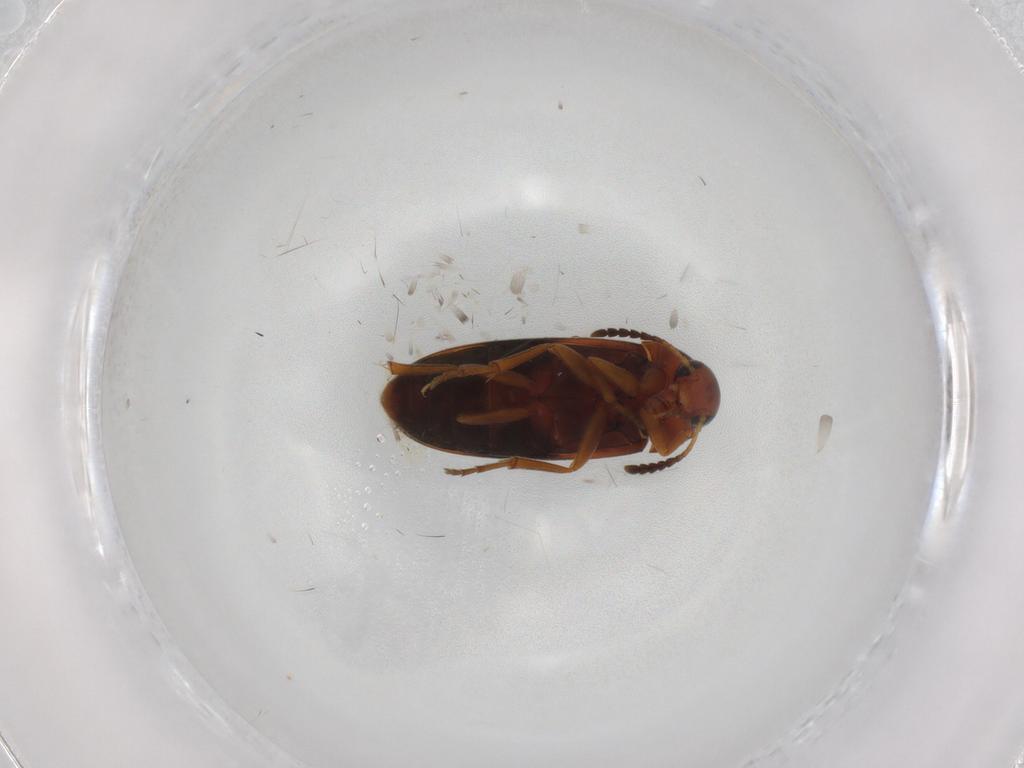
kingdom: Animalia
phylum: Arthropoda
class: Insecta
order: Coleoptera
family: Scraptiidae
